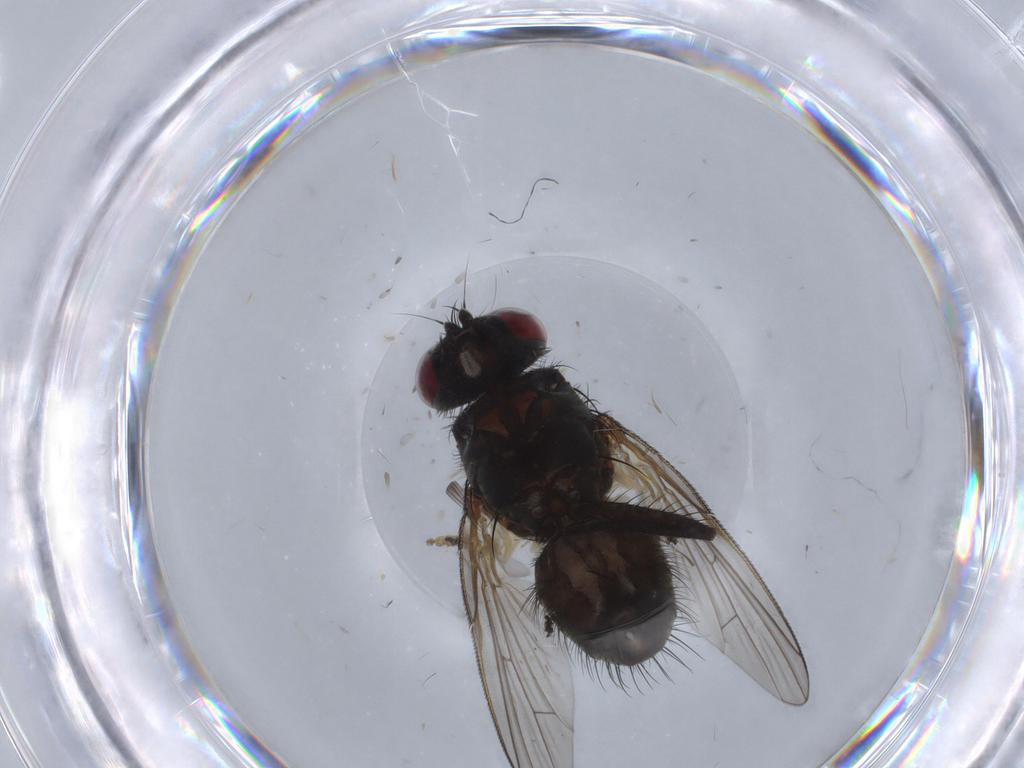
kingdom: Animalia
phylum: Arthropoda
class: Insecta
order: Diptera
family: Muscidae
